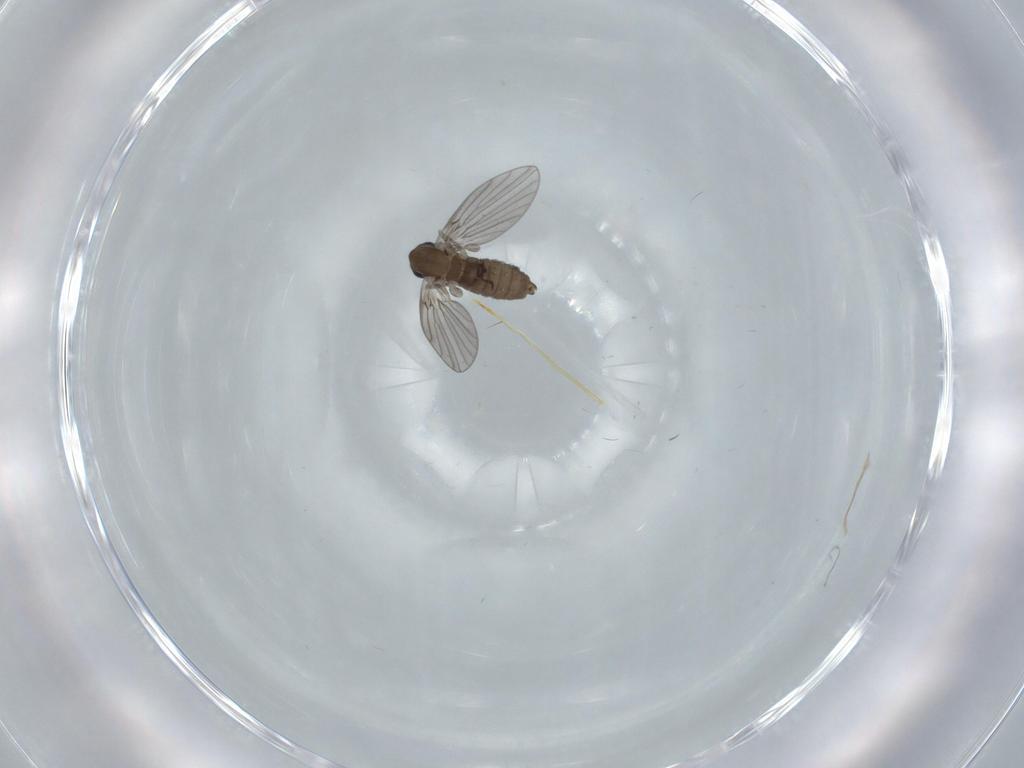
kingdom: Animalia
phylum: Arthropoda
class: Insecta
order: Diptera
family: Psychodidae
